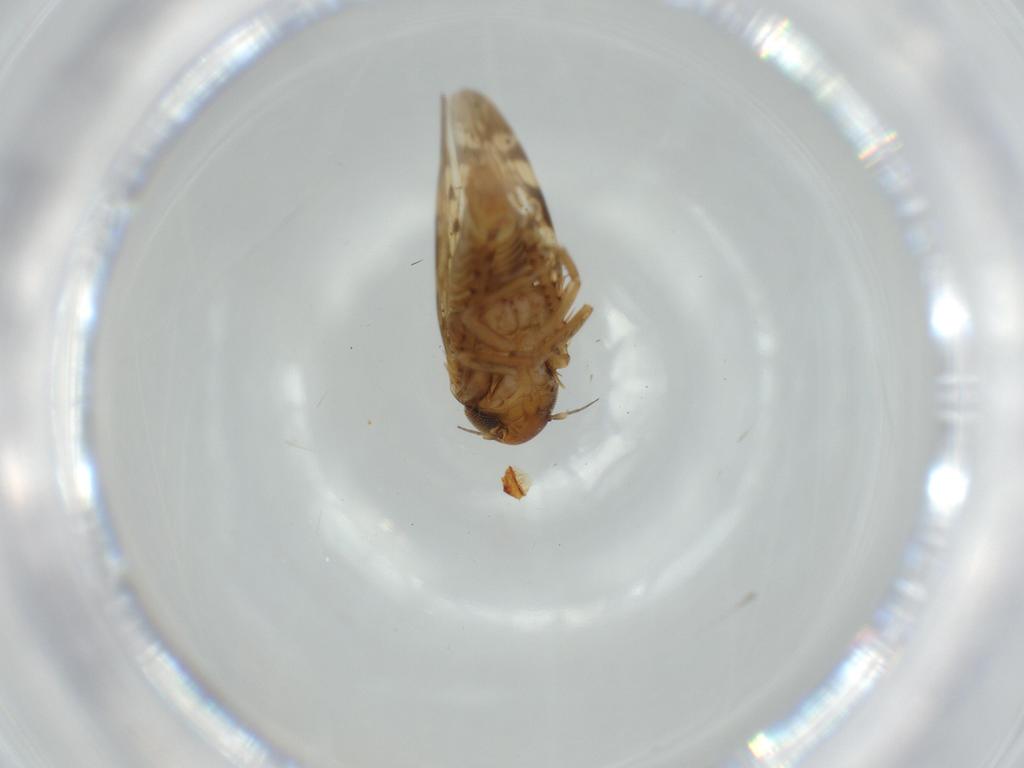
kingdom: Animalia
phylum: Arthropoda
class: Insecta
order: Hemiptera
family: Cicadellidae
